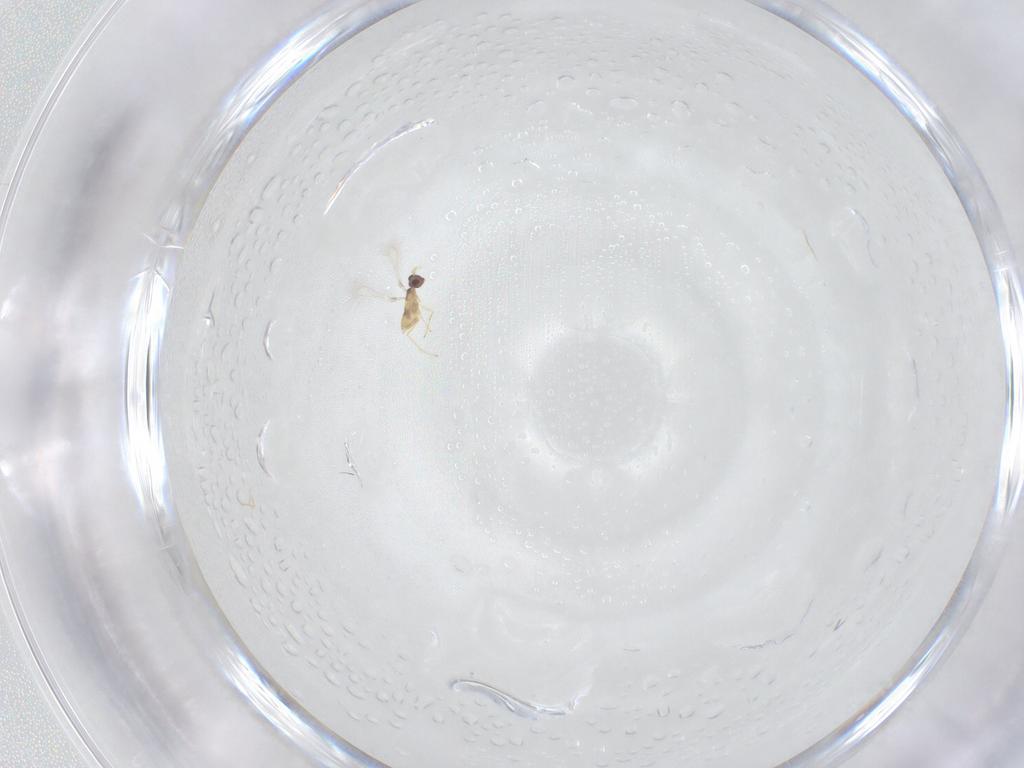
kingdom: Animalia
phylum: Arthropoda
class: Insecta
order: Hymenoptera
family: Mymaridae
